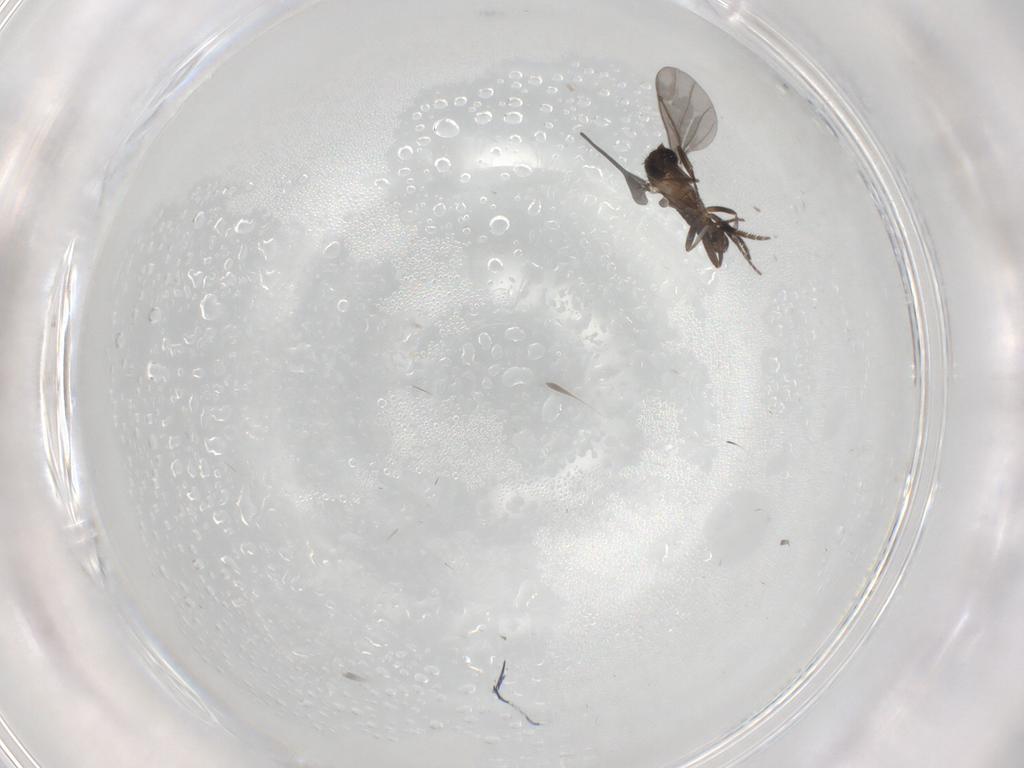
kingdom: Animalia
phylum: Arthropoda
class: Insecta
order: Diptera
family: Phoridae
